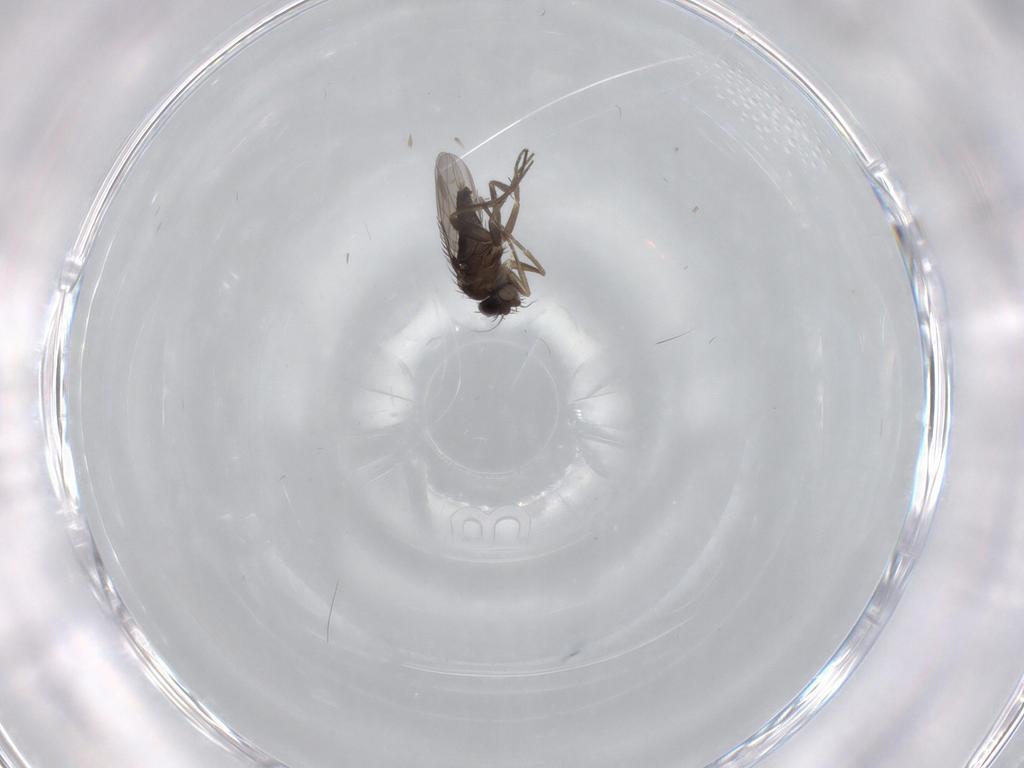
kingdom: Animalia
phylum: Arthropoda
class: Insecta
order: Diptera
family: Phoridae
